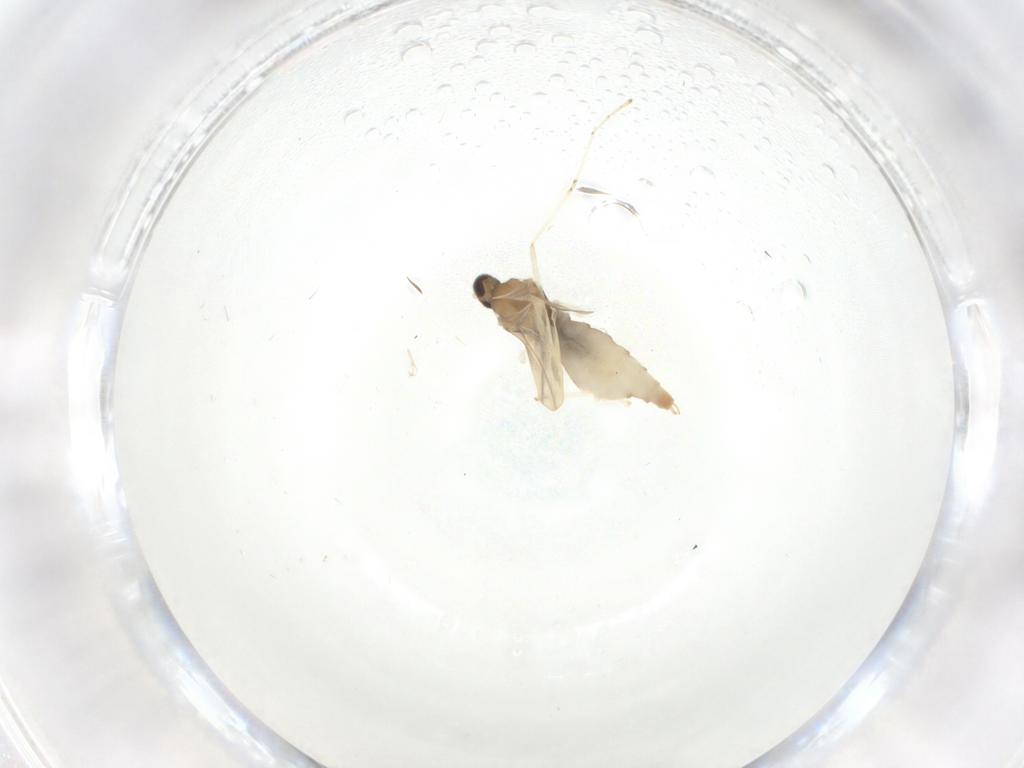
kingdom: Animalia
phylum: Arthropoda
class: Insecta
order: Diptera
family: Cecidomyiidae
